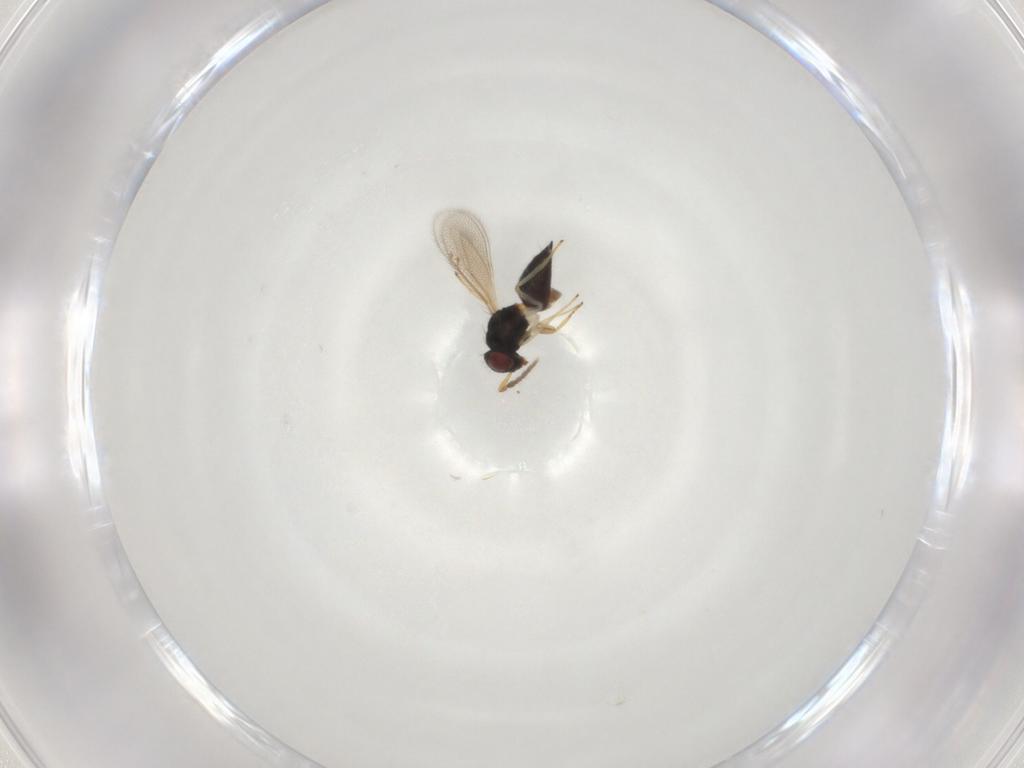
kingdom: Animalia
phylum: Arthropoda
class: Insecta
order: Hymenoptera
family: Eulophidae
